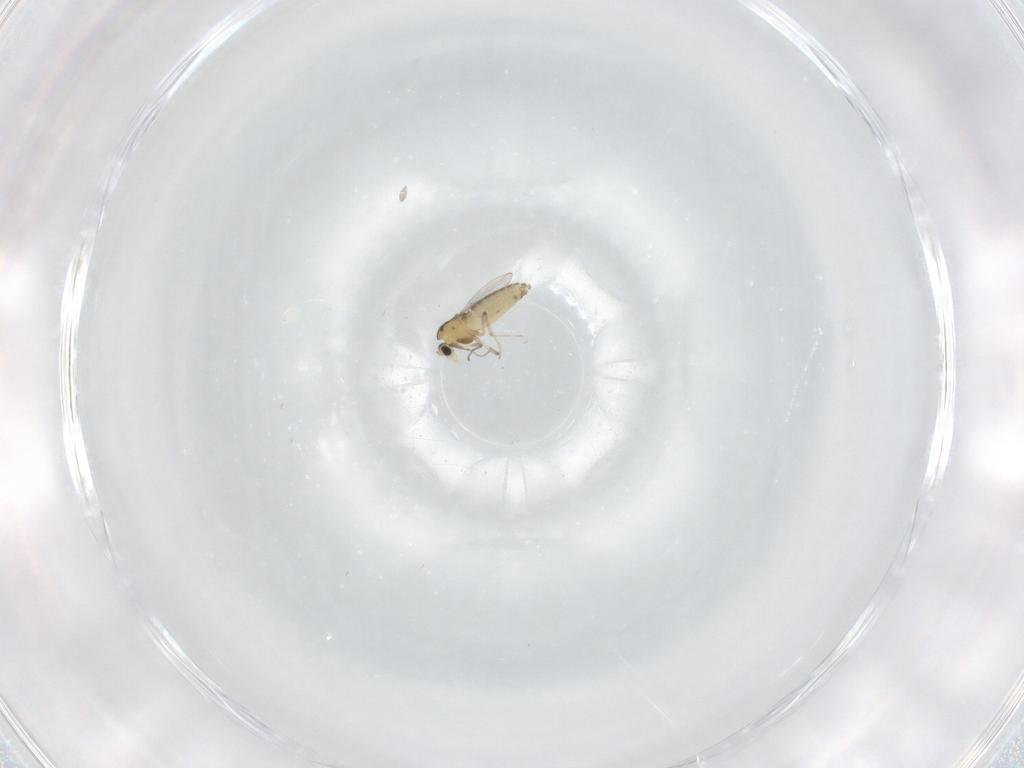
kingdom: Animalia
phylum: Arthropoda
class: Insecta
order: Diptera
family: Chironomidae
